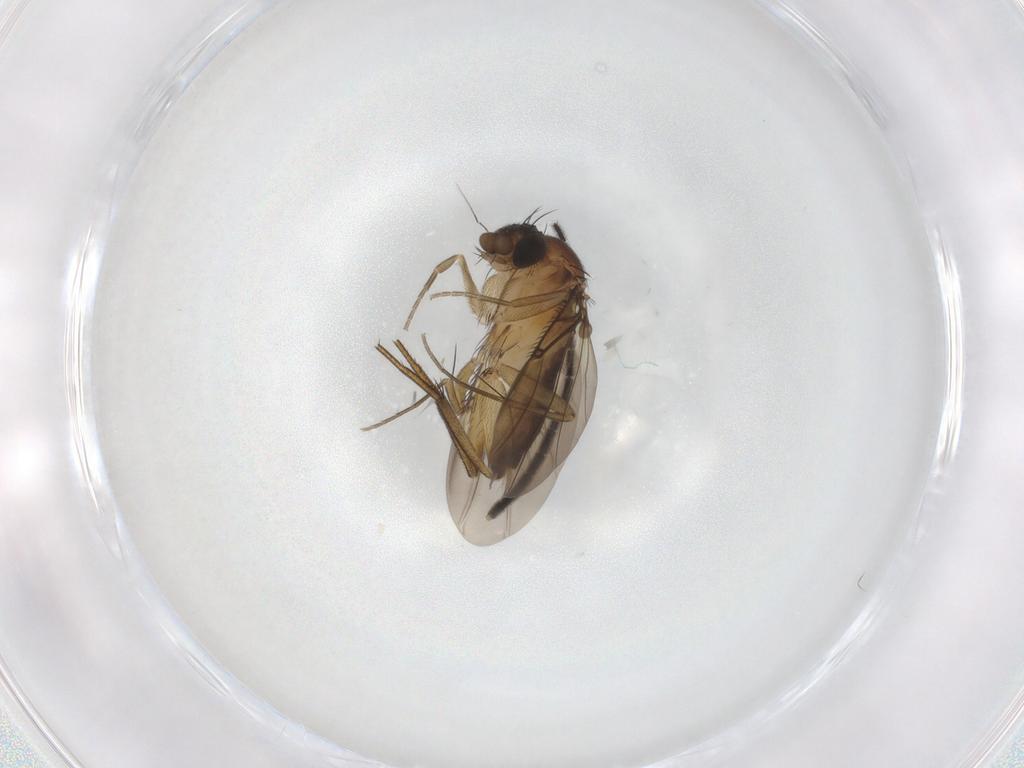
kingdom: Animalia
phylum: Arthropoda
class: Insecta
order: Diptera
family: Phoridae
